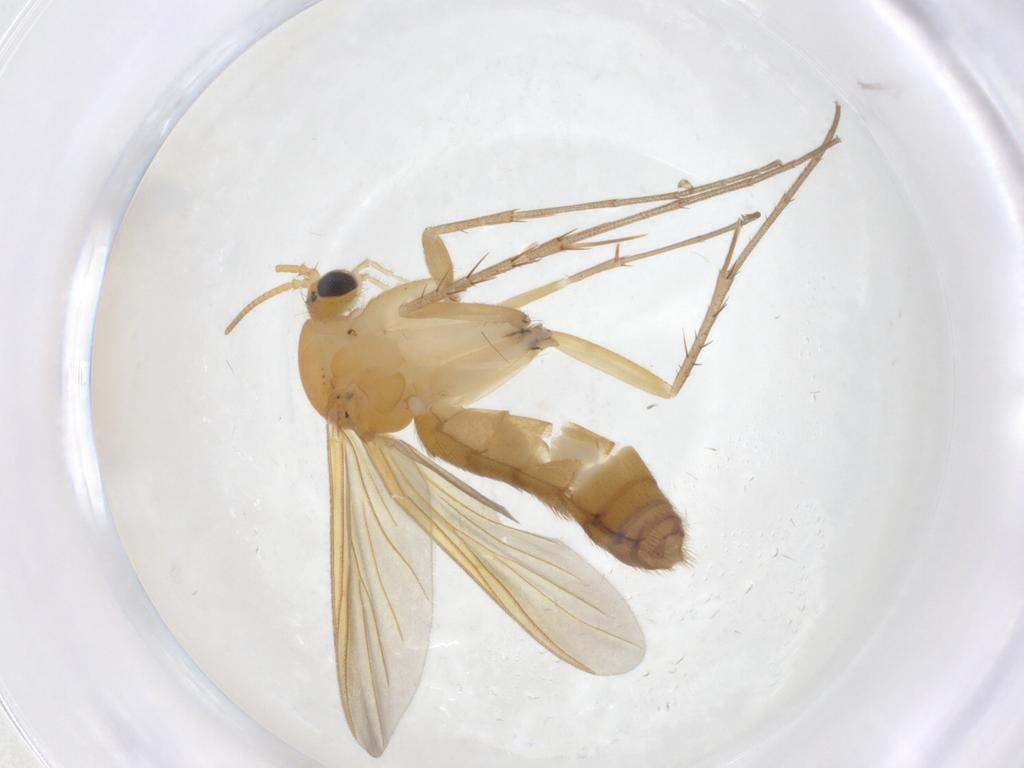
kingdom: Animalia
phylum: Arthropoda
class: Insecta
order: Diptera
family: Mycetophilidae
